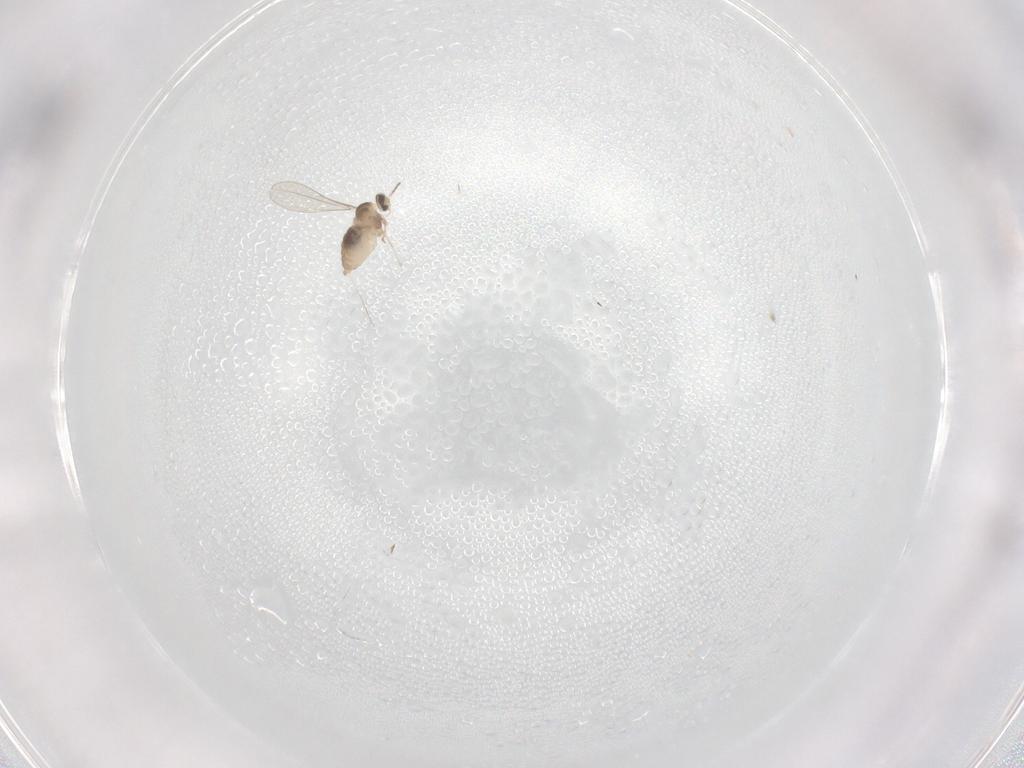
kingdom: Animalia
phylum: Arthropoda
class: Insecta
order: Diptera
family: Cecidomyiidae
